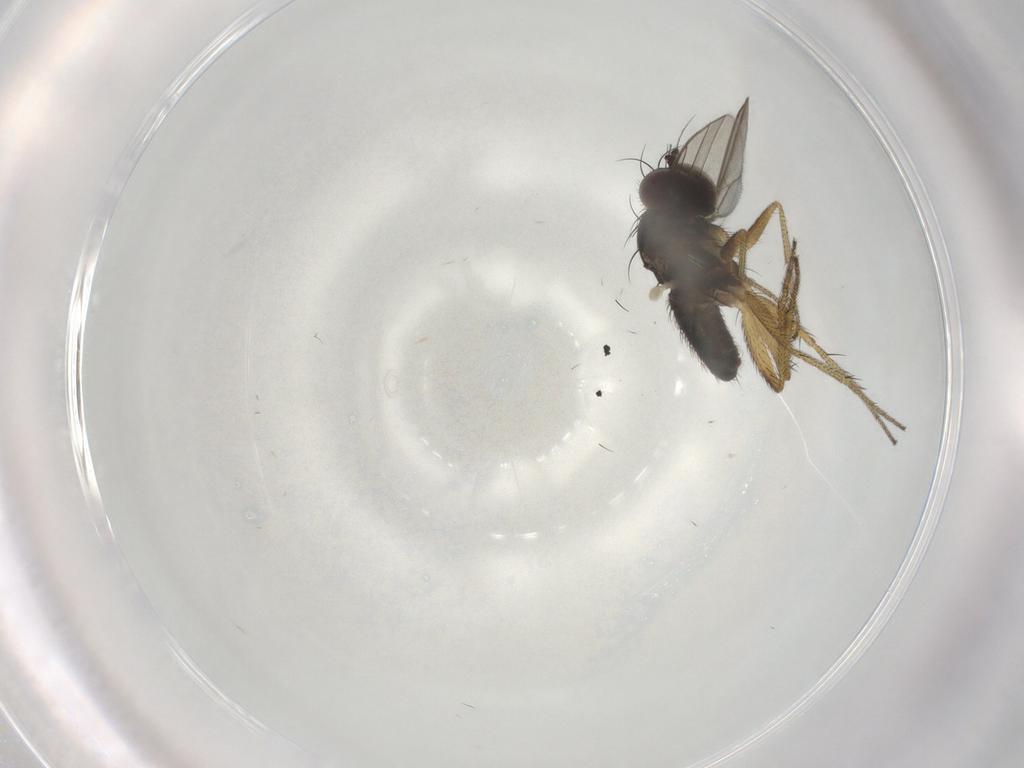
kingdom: Animalia
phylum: Arthropoda
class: Insecta
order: Diptera
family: Dolichopodidae
